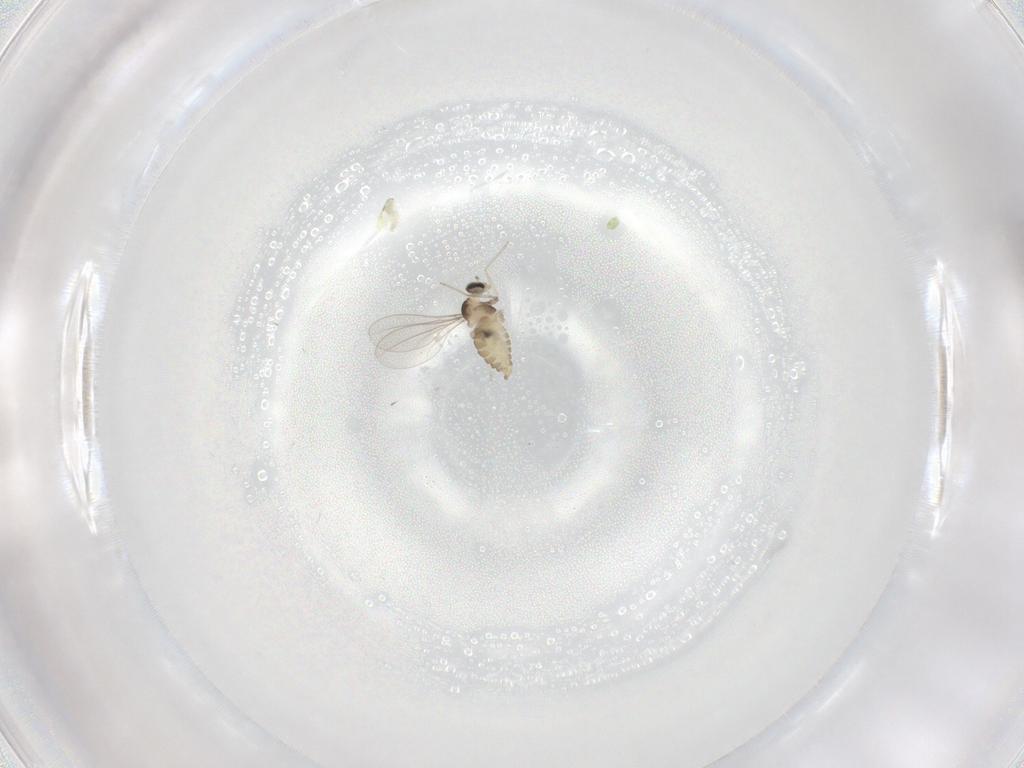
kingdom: Animalia
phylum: Arthropoda
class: Insecta
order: Diptera
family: Cecidomyiidae
